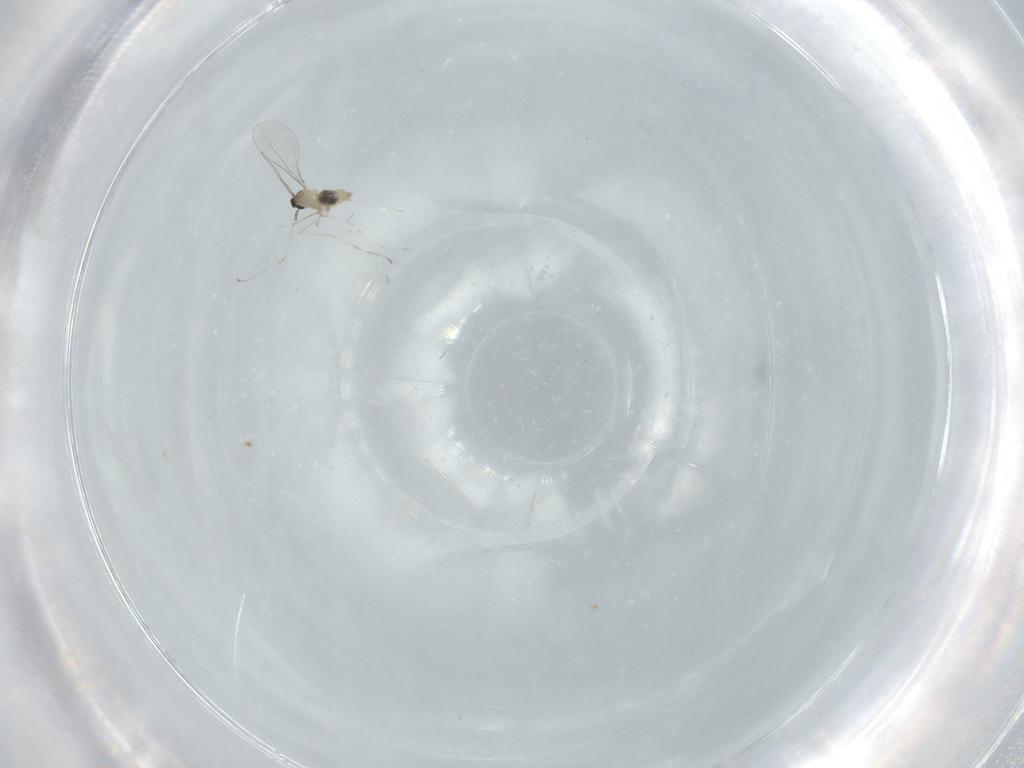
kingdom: Animalia
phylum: Arthropoda
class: Insecta
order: Diptera
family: Cecidomyiidae
